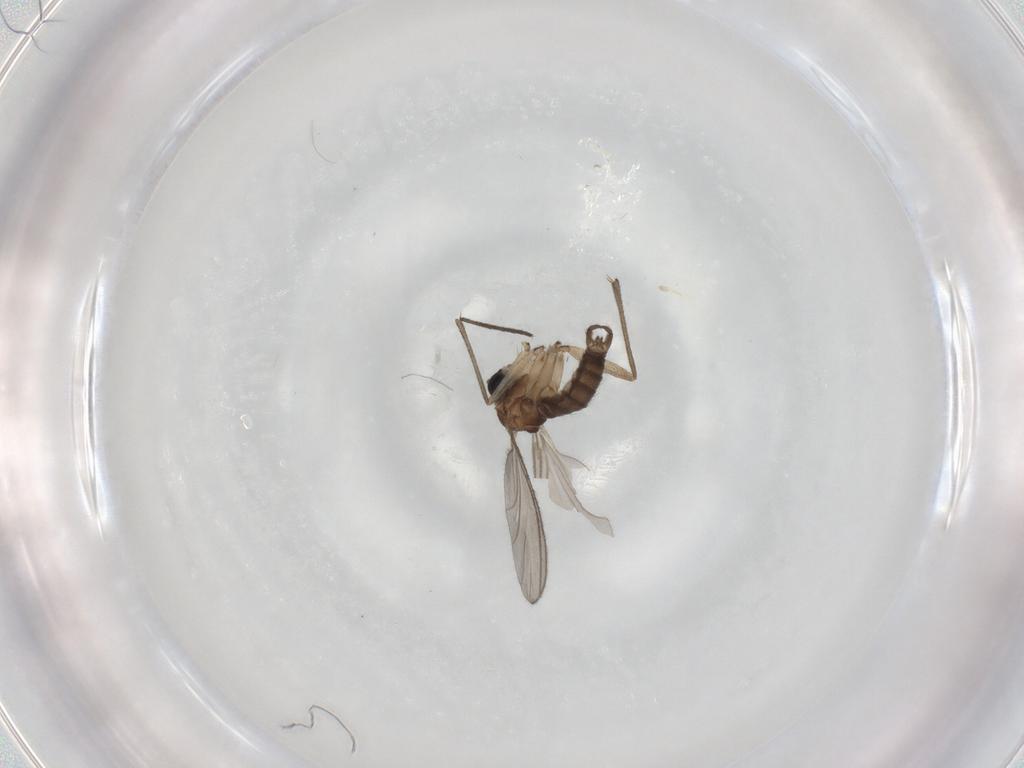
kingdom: Animalia
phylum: Arthropoda
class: Insecta
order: Diptera
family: Sciaridae
